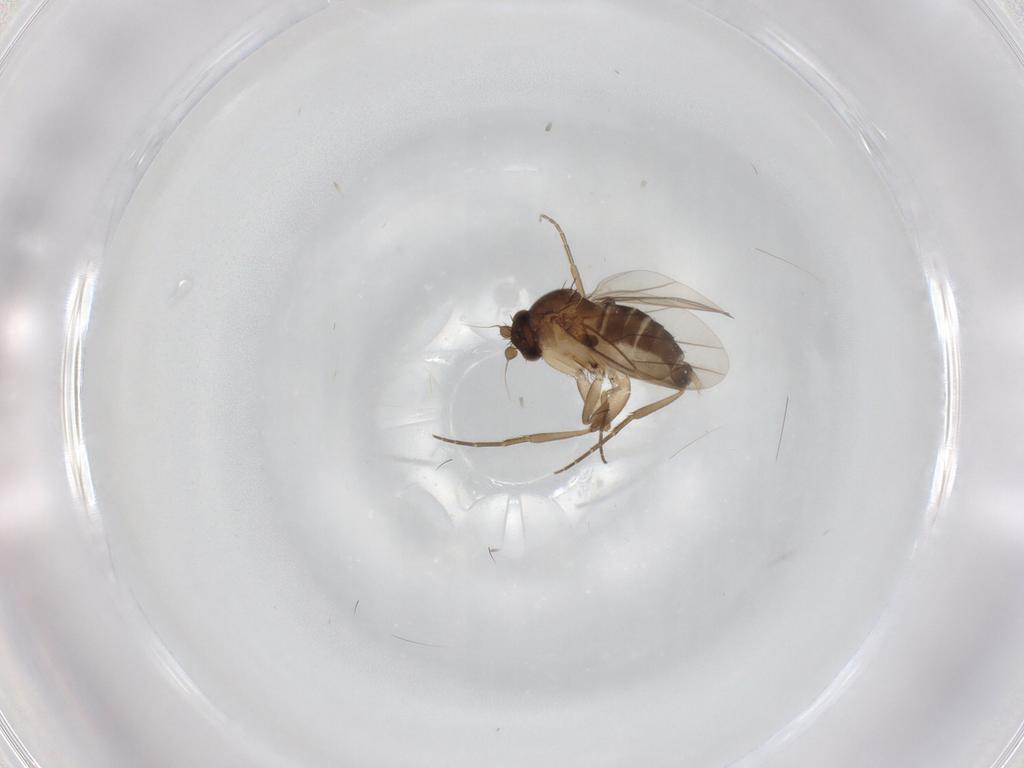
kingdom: Animalia
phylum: Arthropoda
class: Insecta
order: Diptera
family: Phoridae
